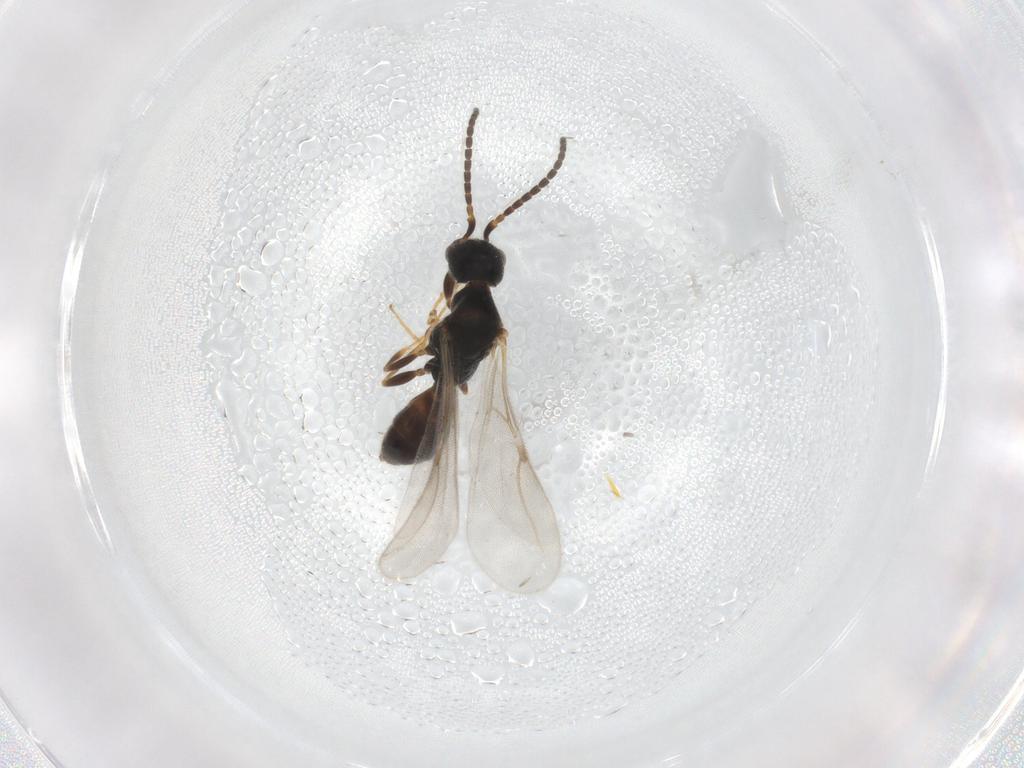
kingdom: Animalia
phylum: Arthropoda
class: Insecta
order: Hymenoptera
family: Bethylidae
